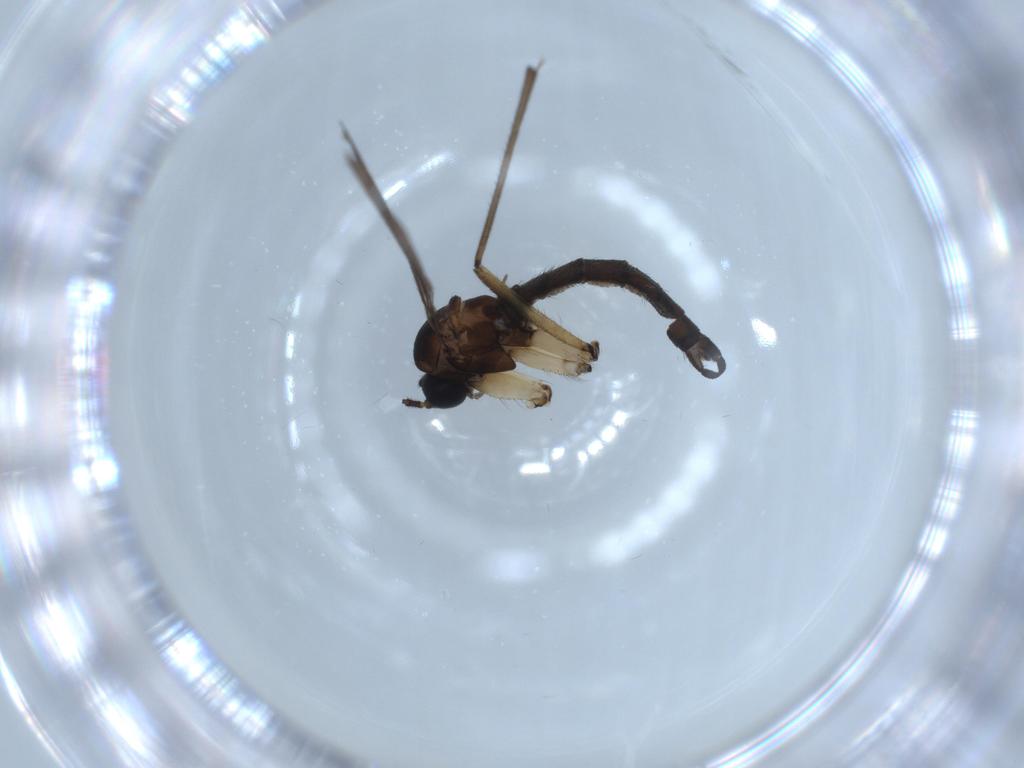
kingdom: Animalia
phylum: Arthropoda
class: Insecta
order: Diptera
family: Sciaridae
